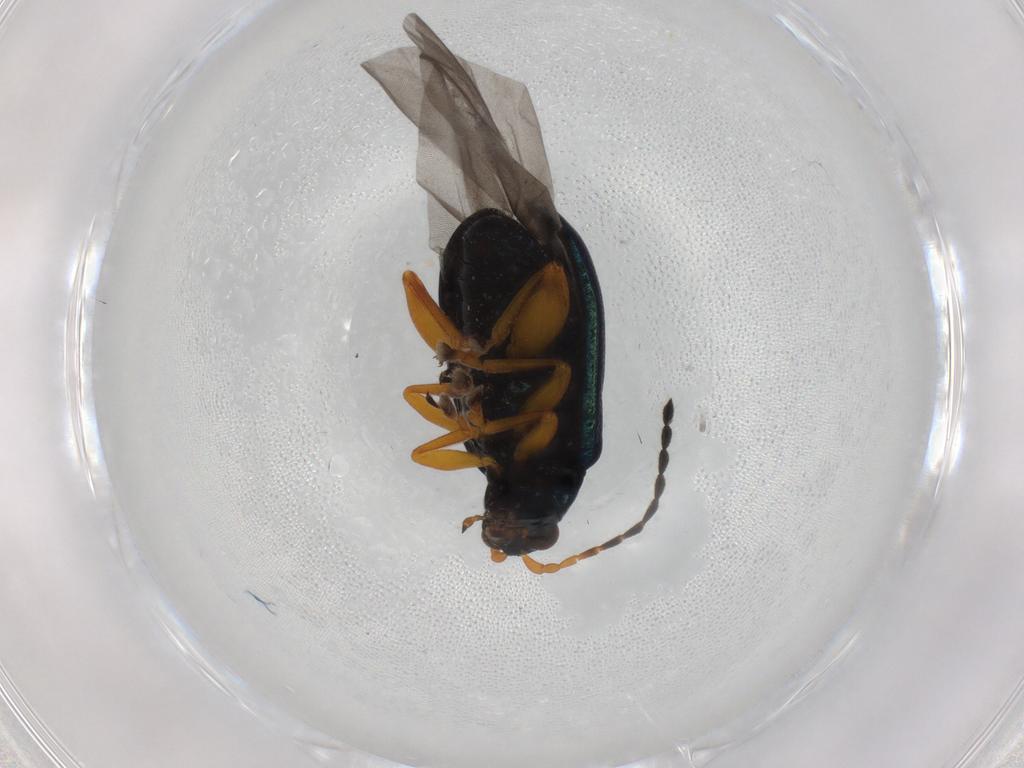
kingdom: Animalia
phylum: Arthropoda
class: Insecta
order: Coleoptera
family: Chrysomelidae
